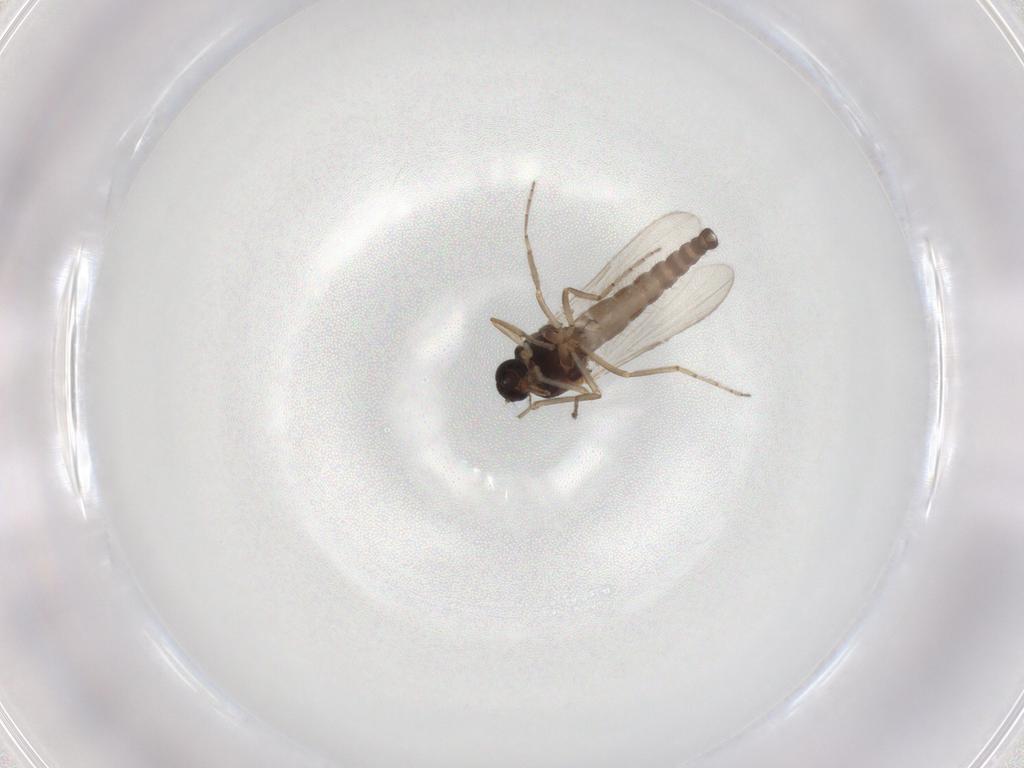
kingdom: Animalia
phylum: Arthropoda
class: Insecta
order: Diptera
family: Ceratopogonidae
